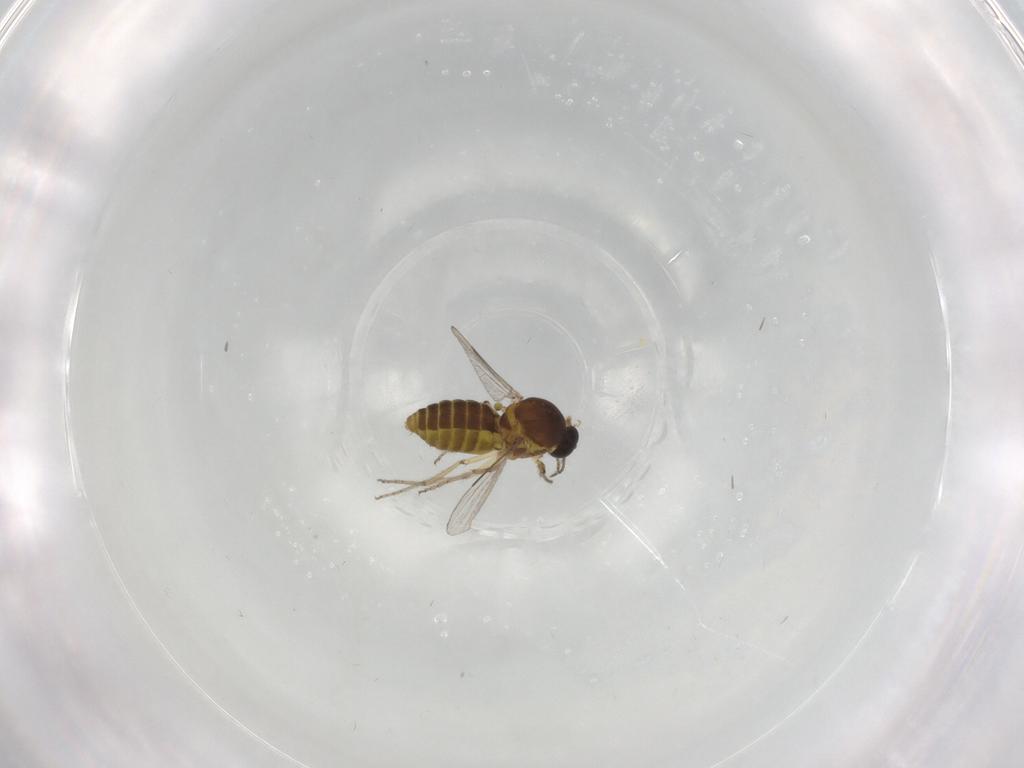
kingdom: Animalia
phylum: Arthropoda
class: Insecta
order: Diptera
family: Ceratopogonidae
